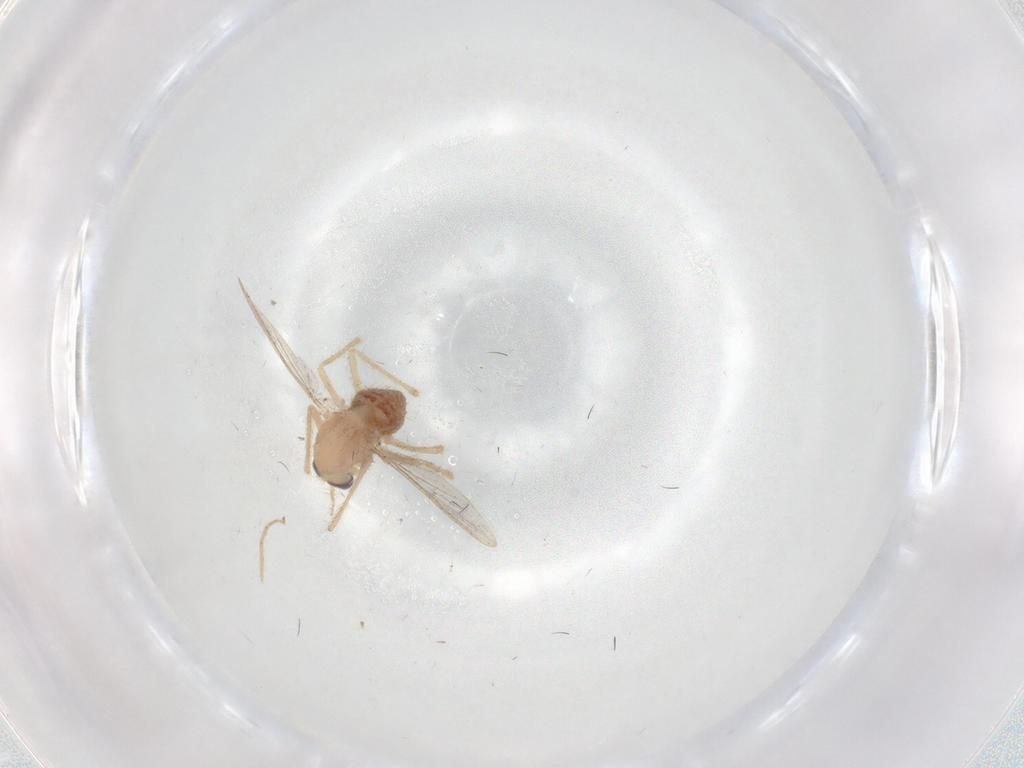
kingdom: Animalia
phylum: Arthropoda
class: Insecta
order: Diptera
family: Chironomidae
